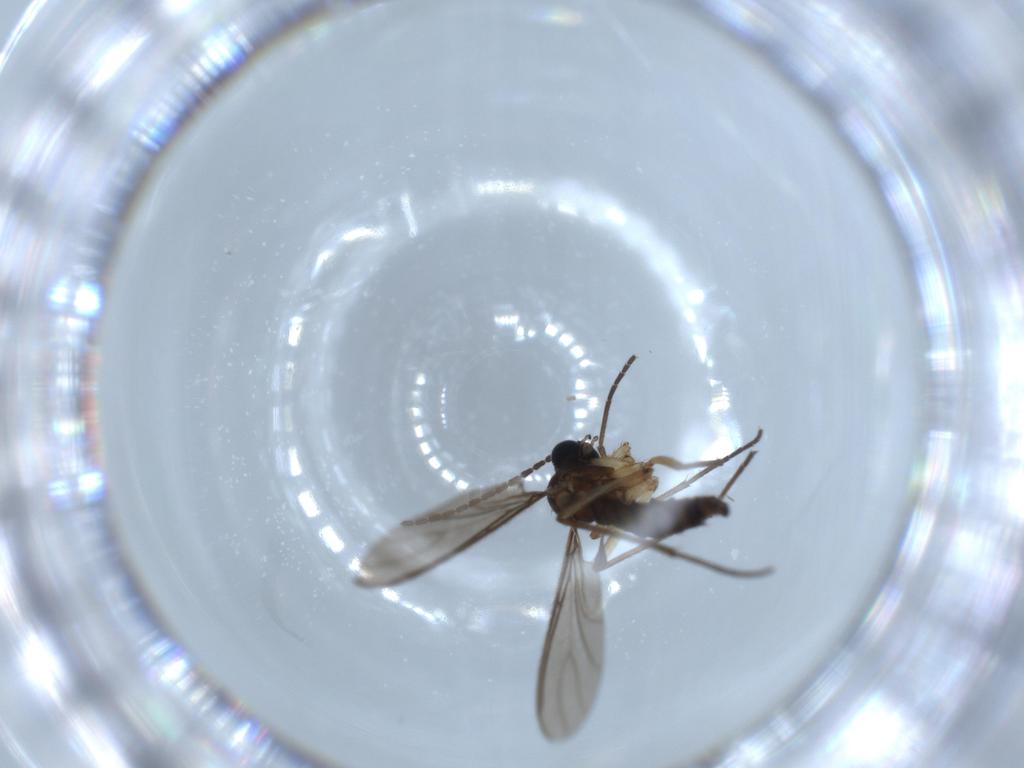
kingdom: Animalia
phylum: Arthropoda
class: Insecta
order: Diptera
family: Sciaridae
